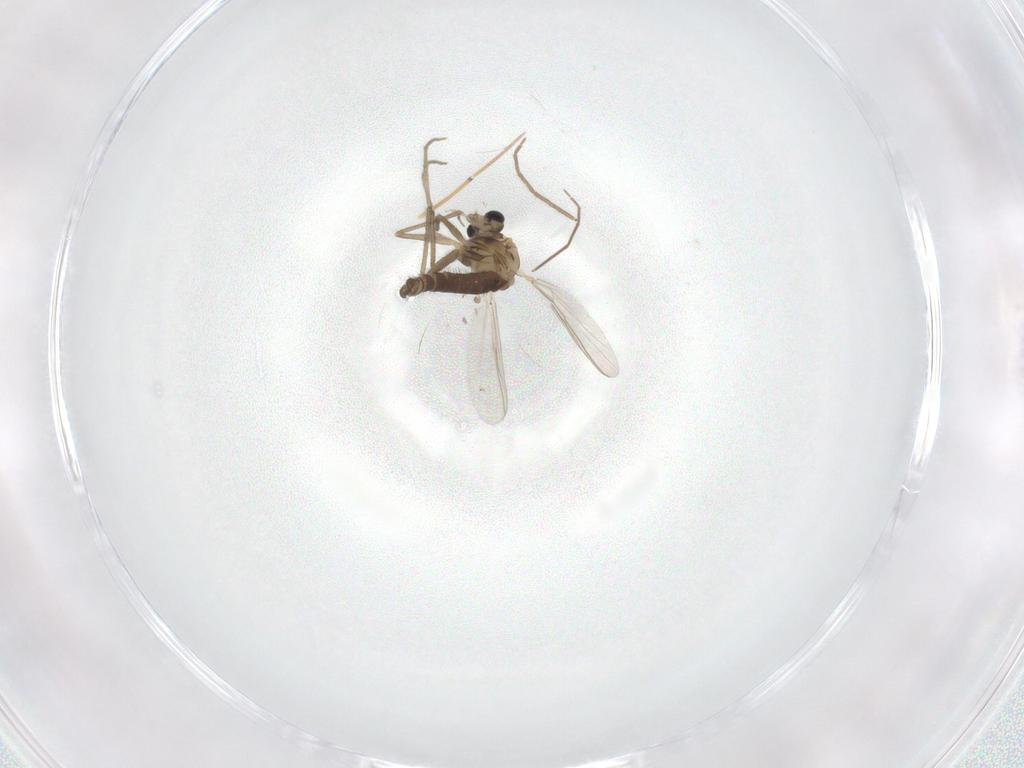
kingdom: Animalia
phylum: Arthropoda
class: Insecta
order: Diptera
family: Chironomidae
